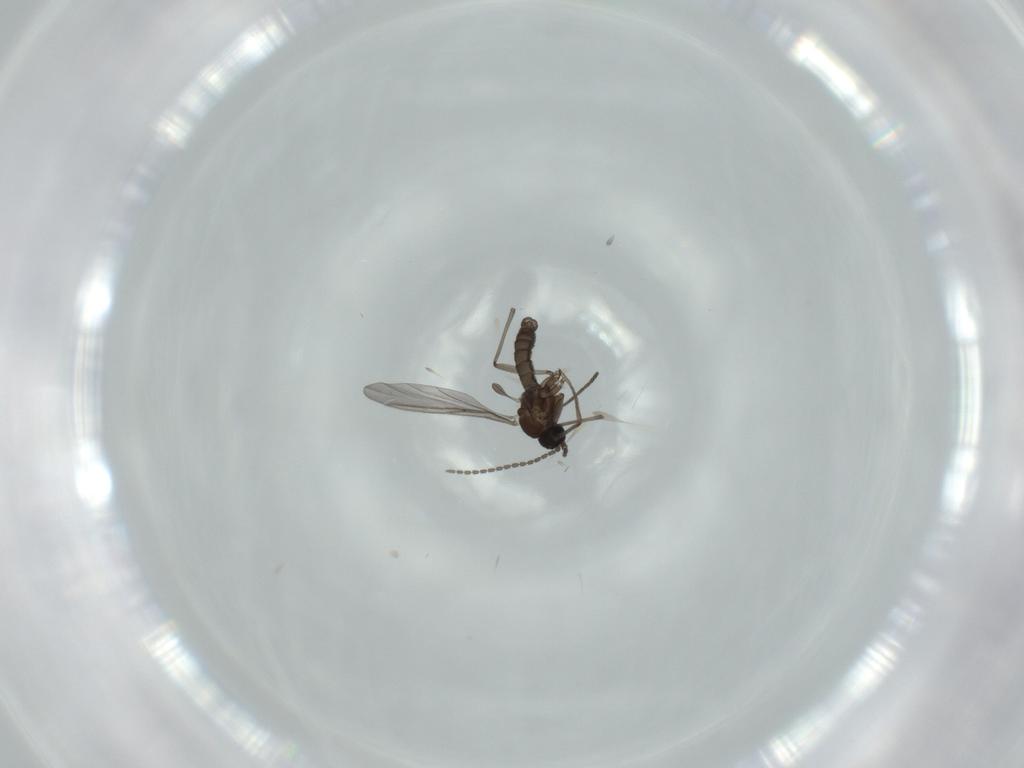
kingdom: Animalia
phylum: Arthropoda
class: Insecta
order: Diptera
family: Sciaridae
